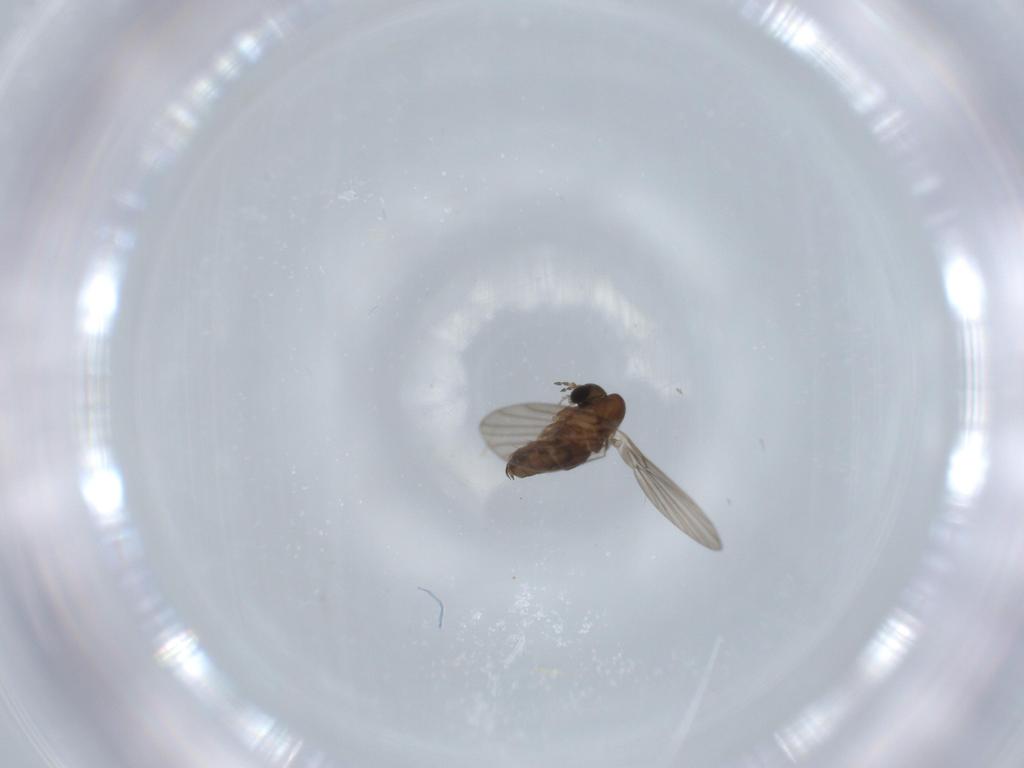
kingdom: Animalia
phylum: Arthropoda
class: Insecta
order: Diptera
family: Psychodidae
